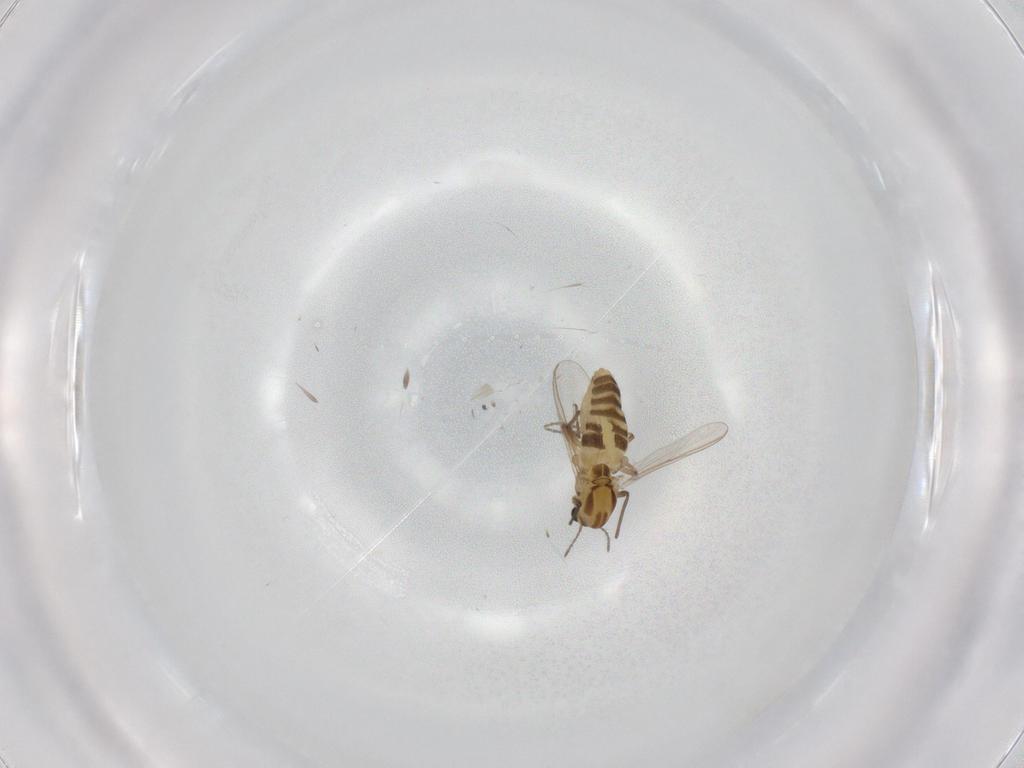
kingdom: Animalia
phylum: Arthropoda
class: Insecta
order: Diptera
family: Chironomidae
